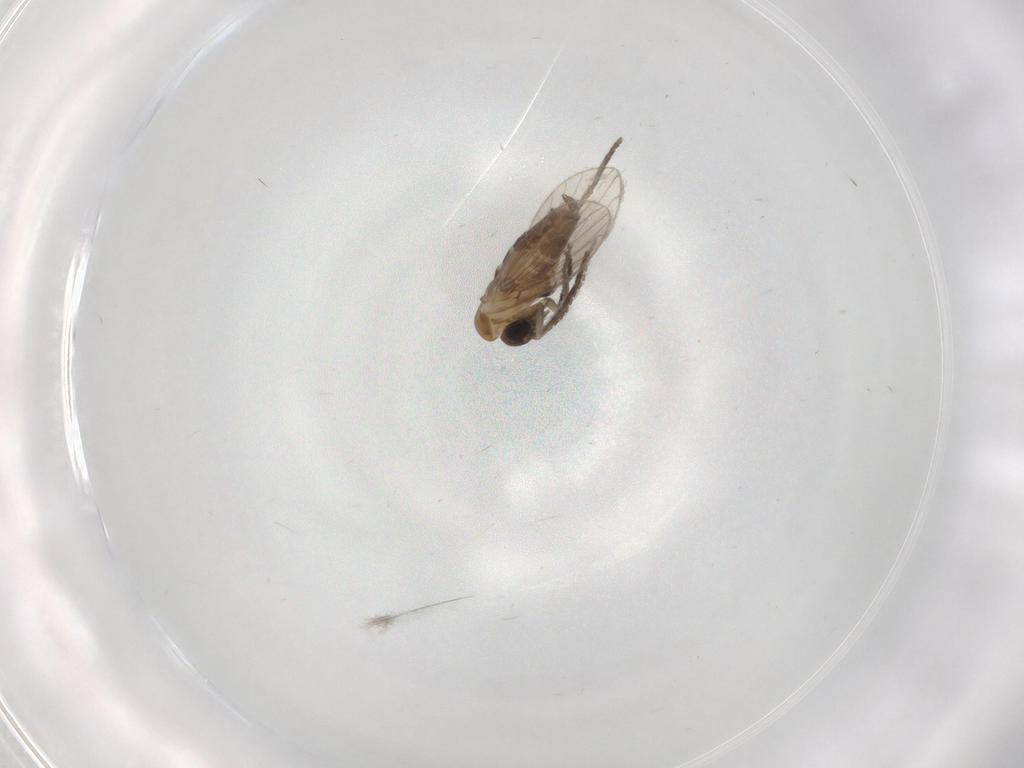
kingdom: Animalia
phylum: Arthropoda
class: Insecta
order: Diptera
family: Psychodidae
